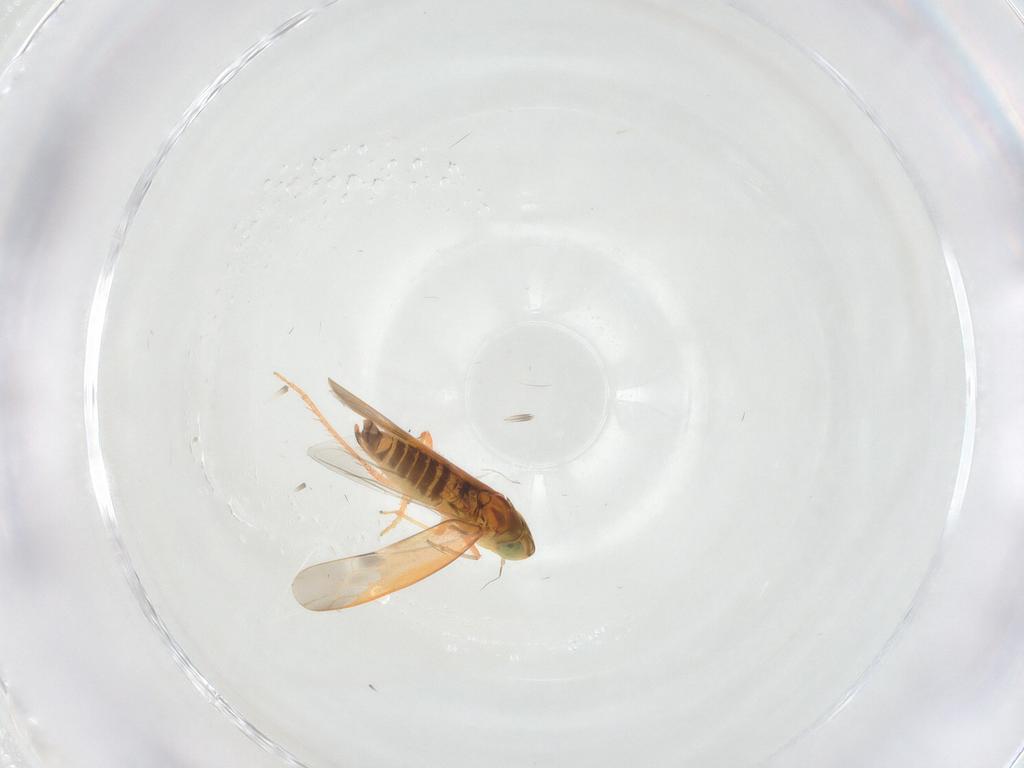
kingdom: Animalia
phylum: Arthropoda
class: Insecta
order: Hemiptera
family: Cicadellidae
